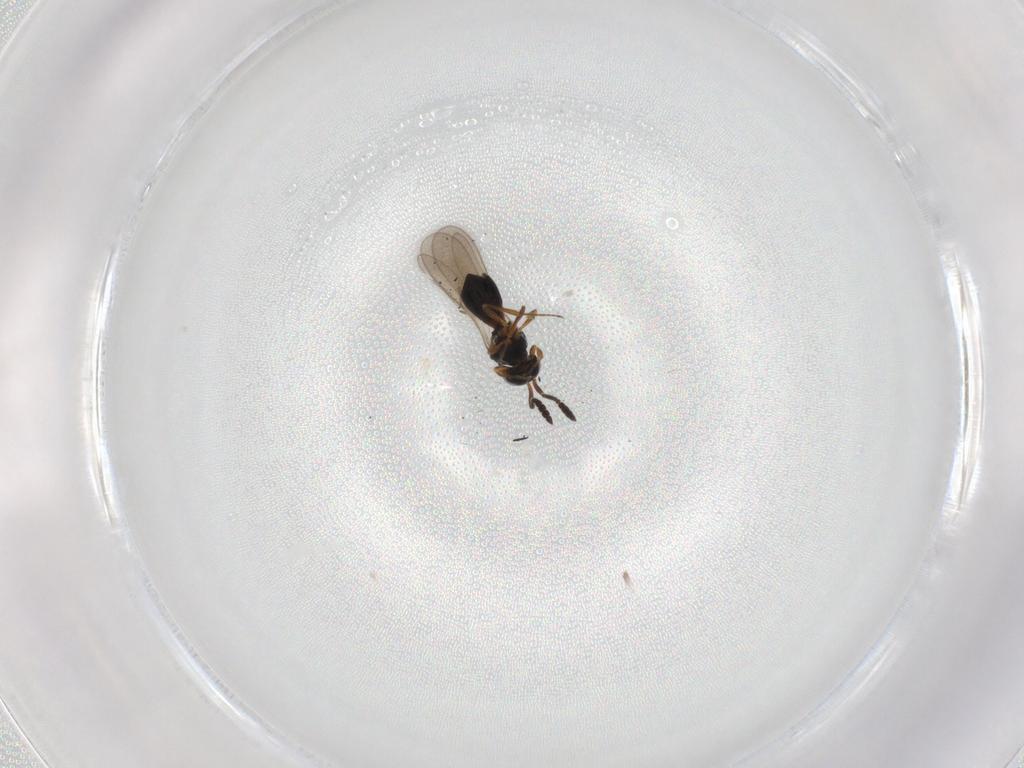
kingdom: Animalia
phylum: Arthropoda
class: Insecta
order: Hymenoptera
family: Scelionidae
